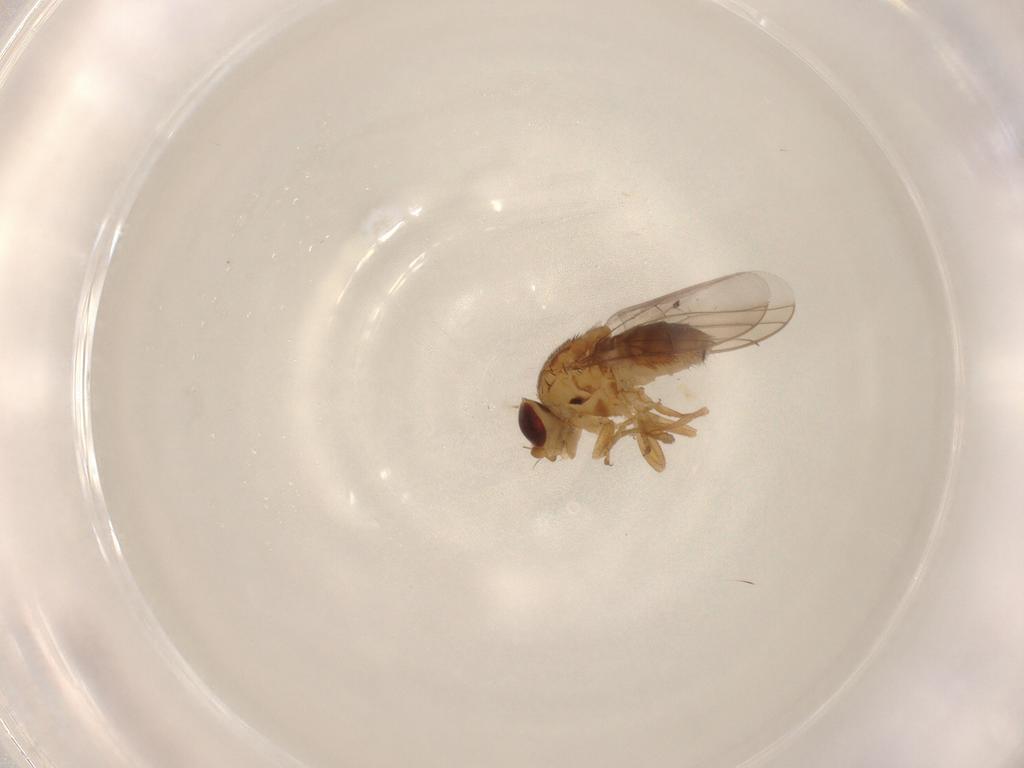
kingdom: Animalia
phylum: Arthropoda
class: Insecta
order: Diptera
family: Chloropidae
